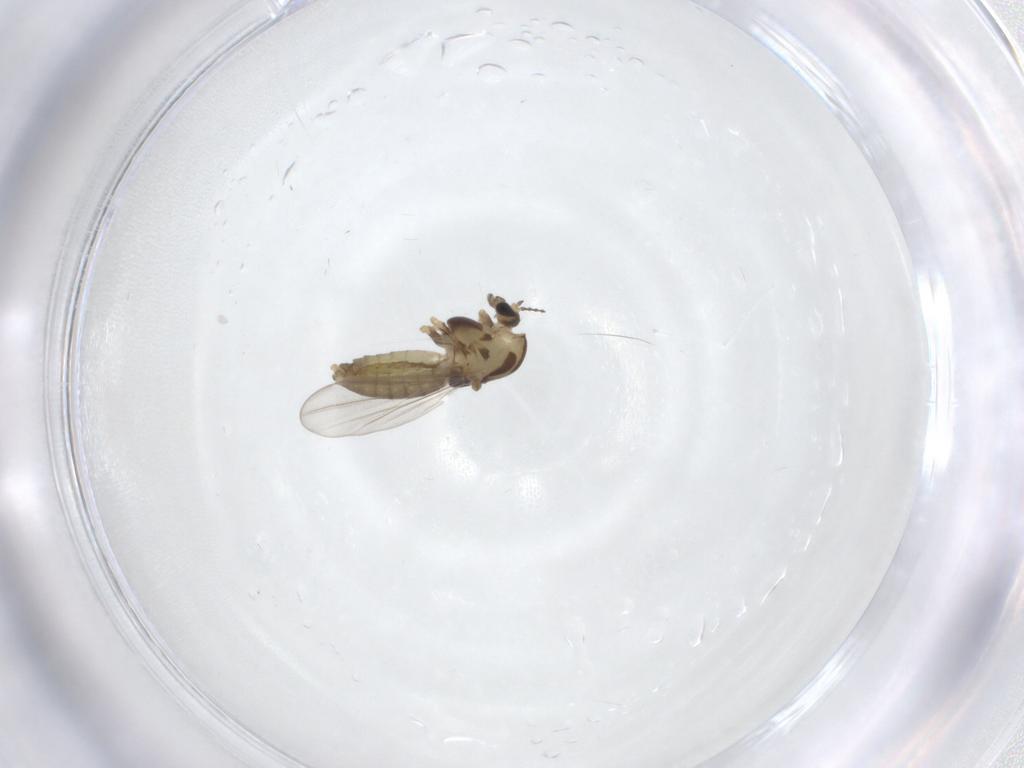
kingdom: Animalia
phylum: Arthropoda
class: Insecta
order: Diptera
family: Chironomidae
